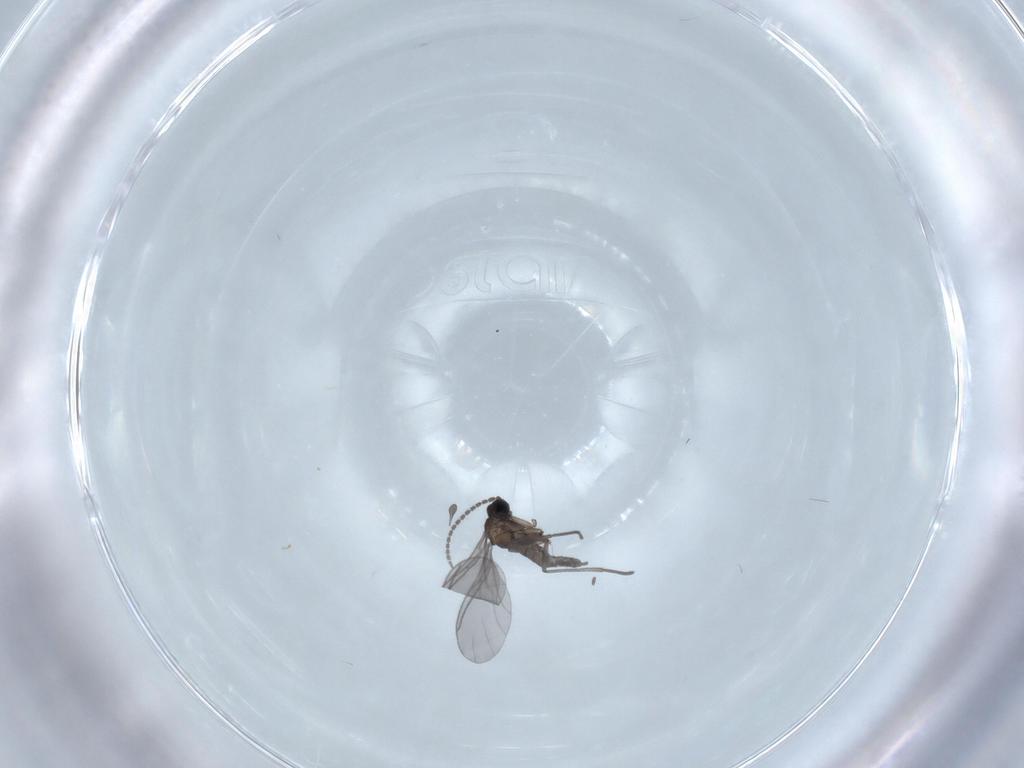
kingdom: Animalia
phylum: Arthropoda
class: Insecta
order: Diptera
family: Sciaridae
